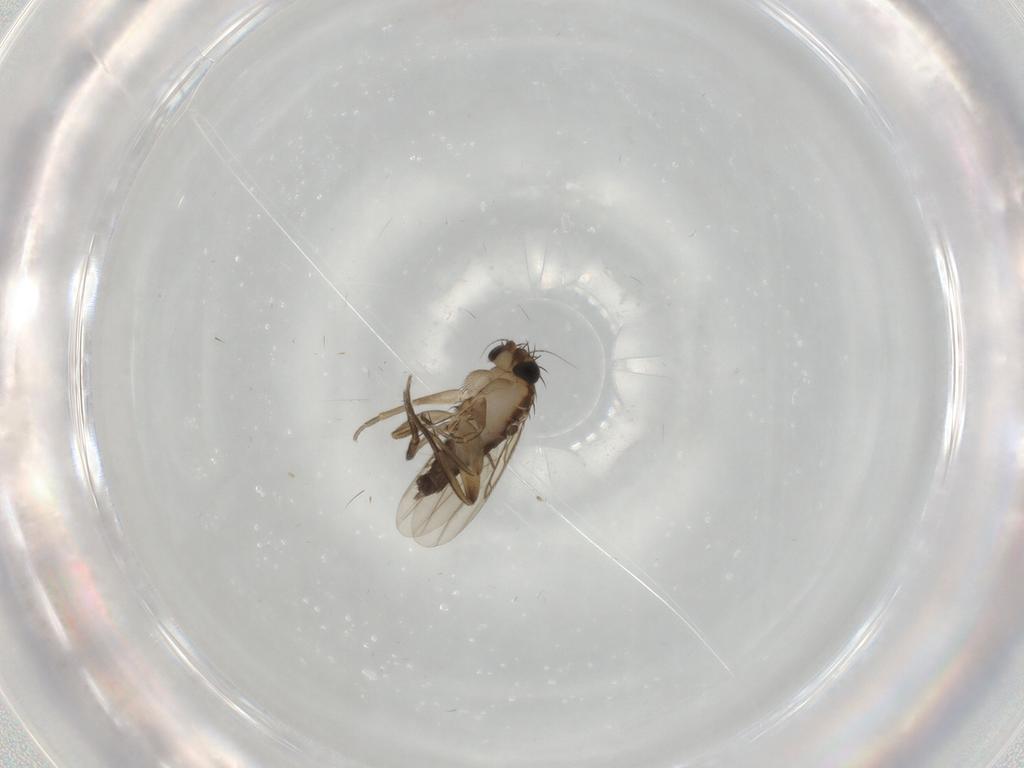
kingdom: Animalia
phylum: Arthropoda
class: Insecta
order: Diptera
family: Phoridae
